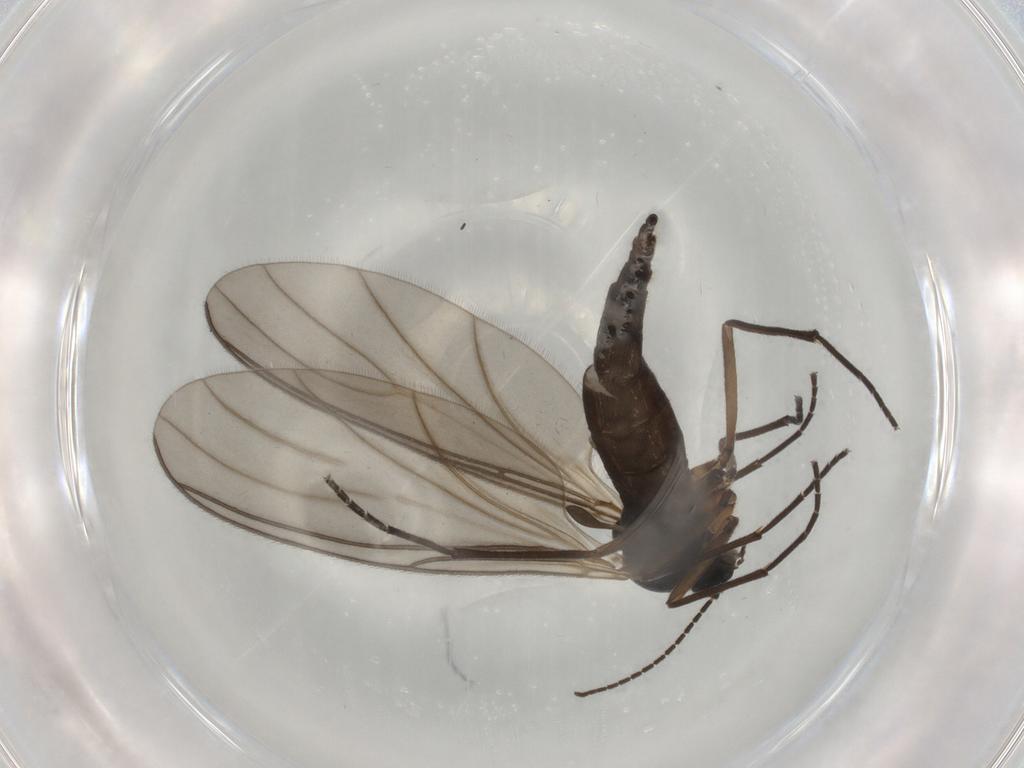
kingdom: Animalia
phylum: Arthropoda
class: Insecta
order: Diptera
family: Sciaridae
